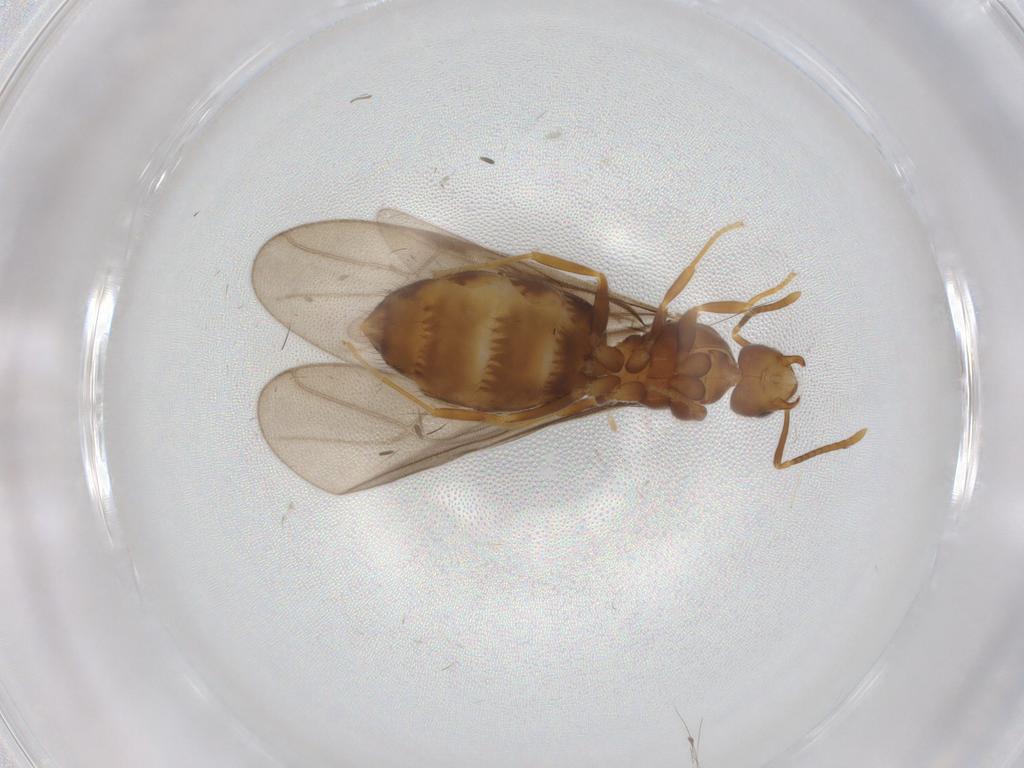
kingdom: Animalia
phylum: Arthropoda
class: Insecta
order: Hymenoptera
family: Formicidae
